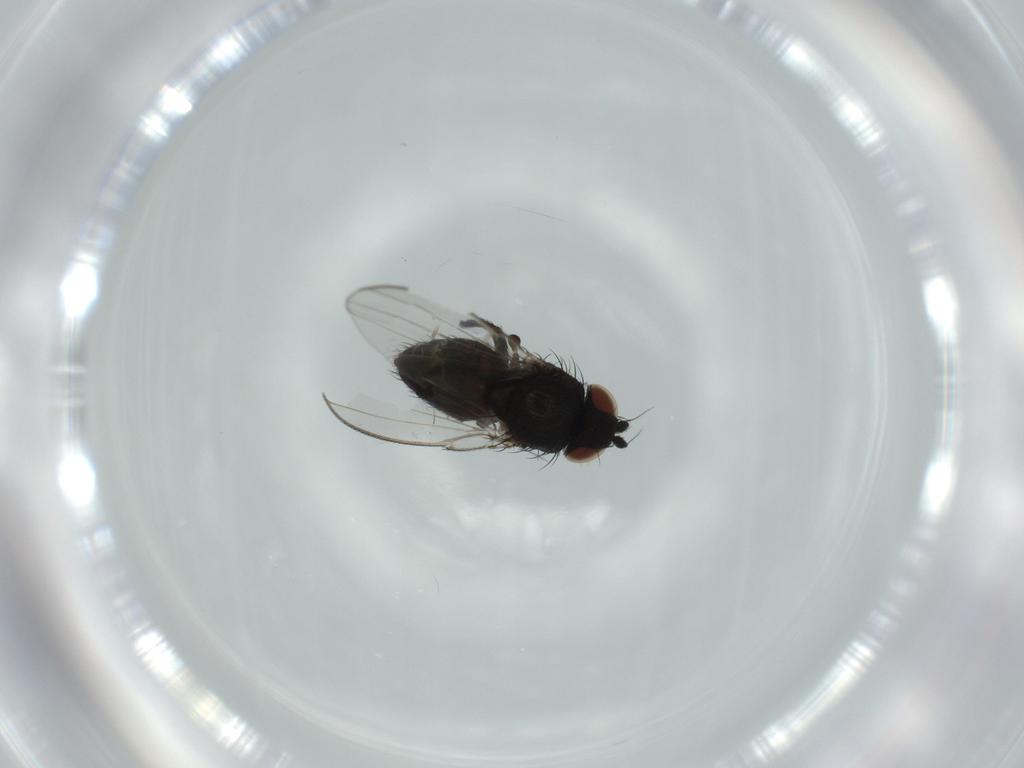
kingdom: Animalia
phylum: Arthropoda
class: Insecta
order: Diptera
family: Milichiidae
